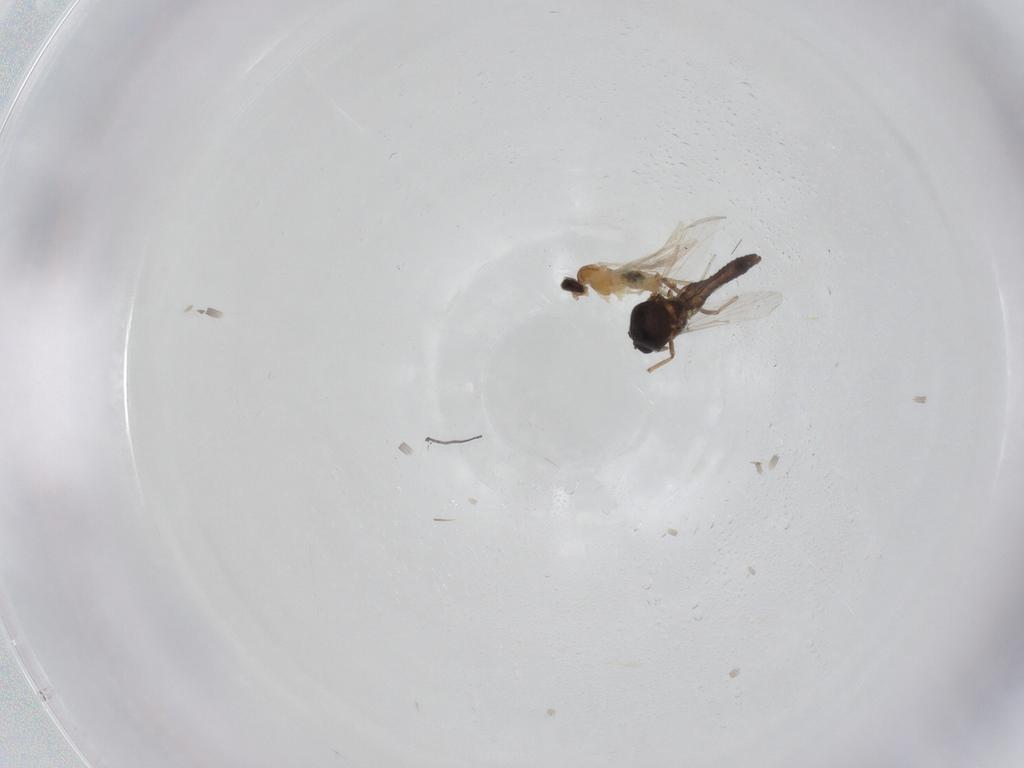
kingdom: Animalia
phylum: Arthropoda
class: Insecta
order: Diptera
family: Cecidomyiidae
